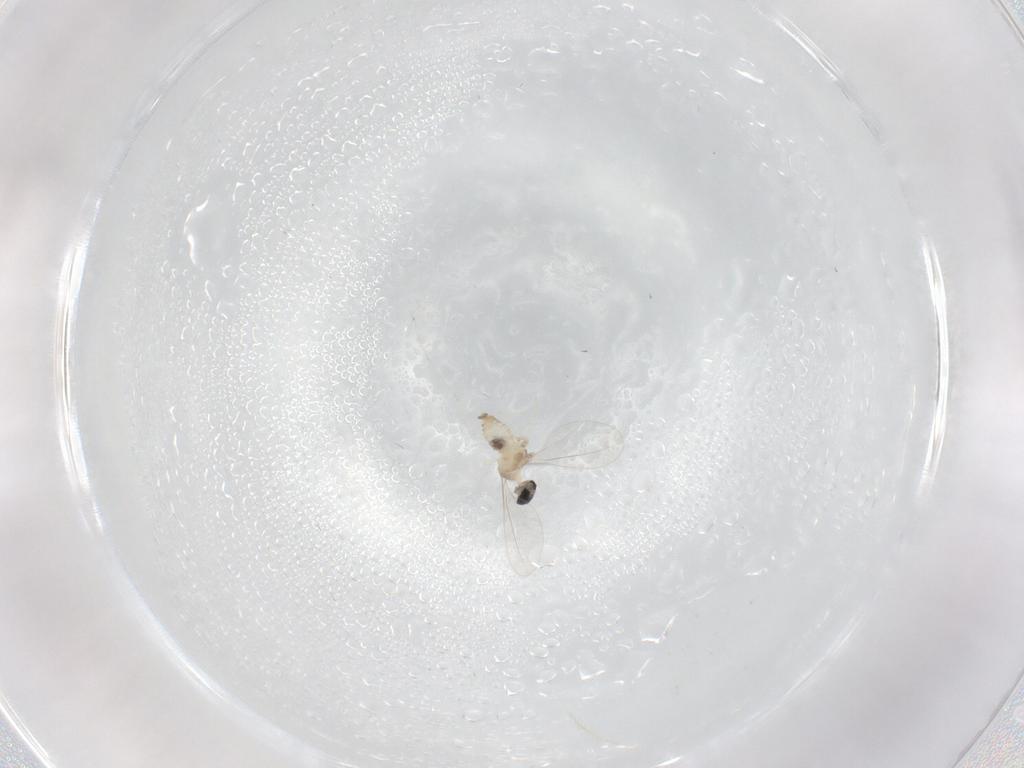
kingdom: Animalia
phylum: Arthropoda
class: Insecta
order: Diptera
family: Cecidomyiidae
